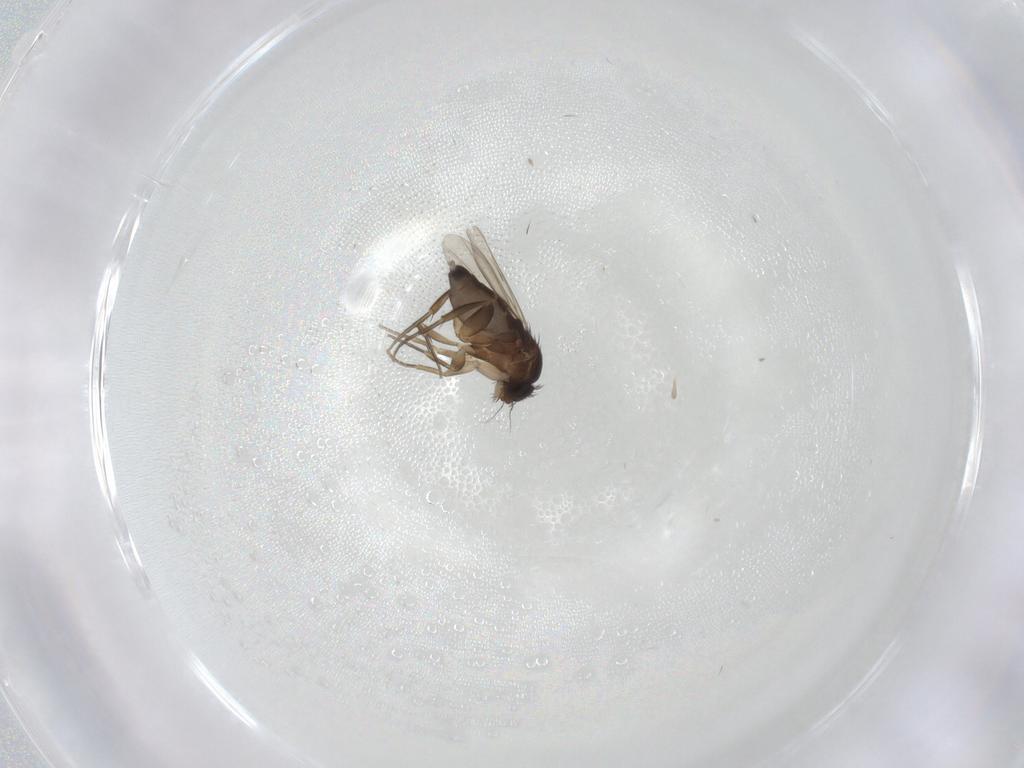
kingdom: Animalia
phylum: Arthropoda
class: Insecta
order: Diptera
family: Phoridae
